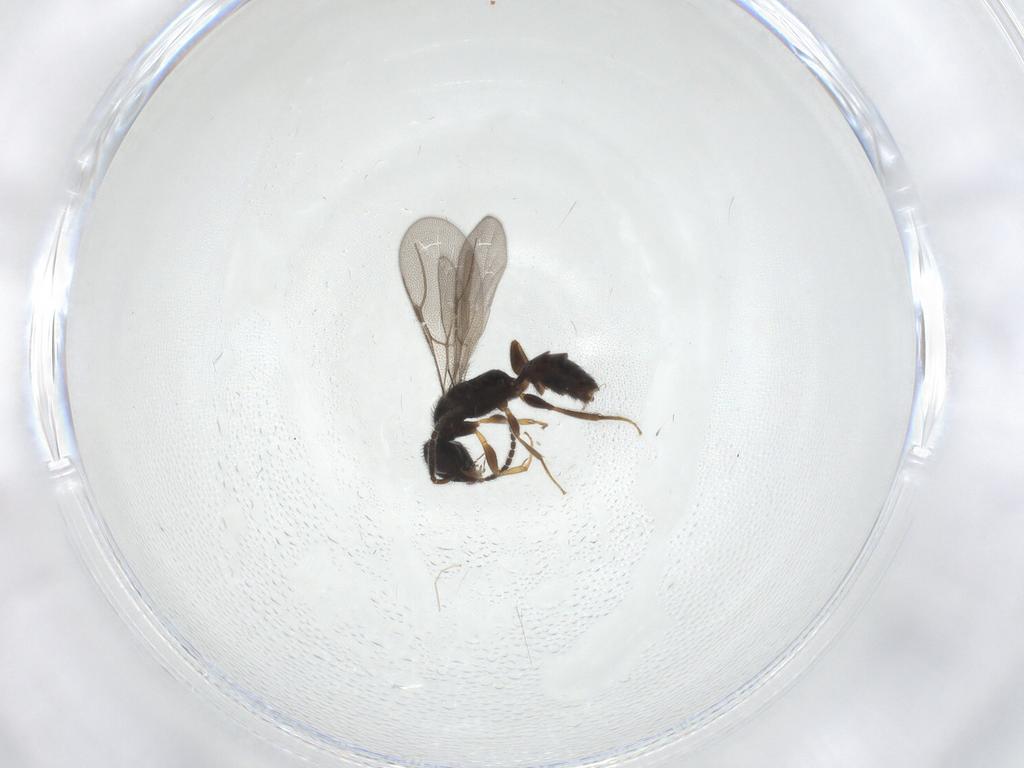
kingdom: Animalia
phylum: Arthropoda
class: Insecta
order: Hymenoptera
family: Bethylidae
